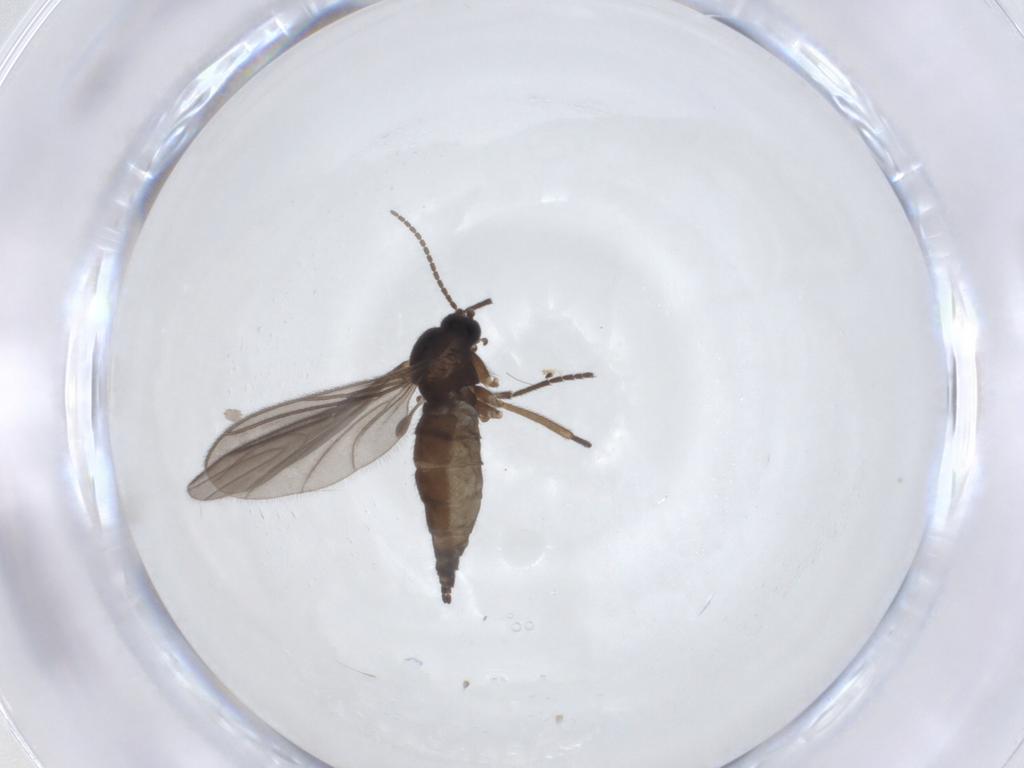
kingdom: Animalia
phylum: Arthropoda
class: Insecta
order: Diptera
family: Sciaridae
